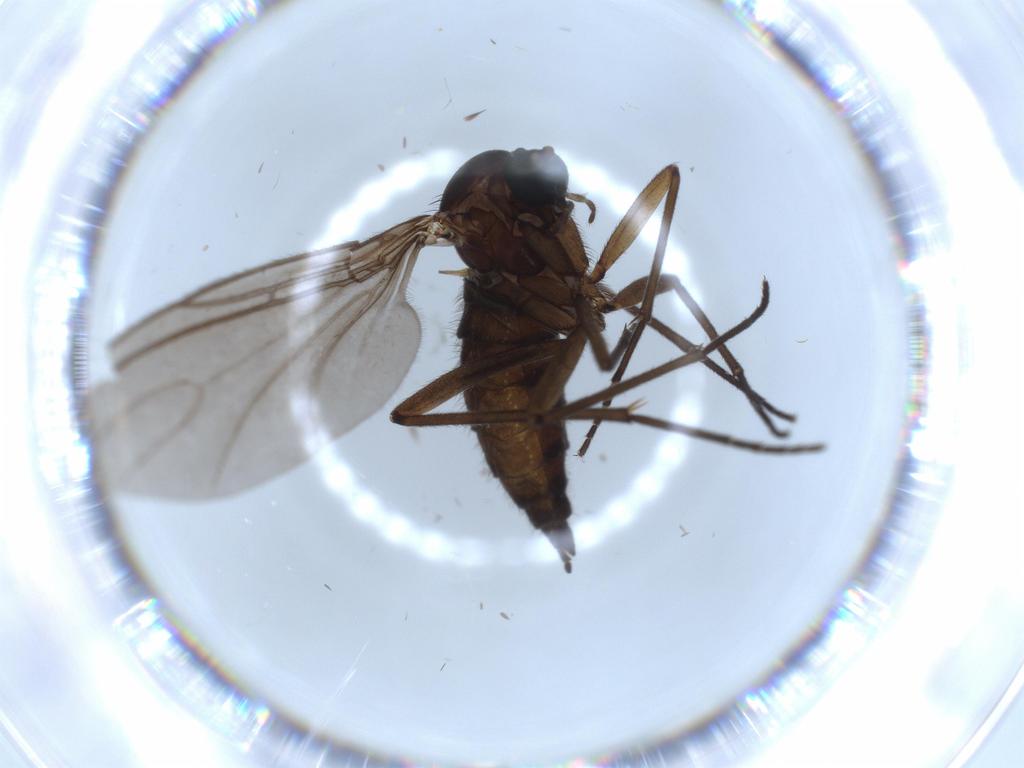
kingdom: Animalia
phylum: Arthropoda
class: Insecta
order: Diptera
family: Sciaridae
